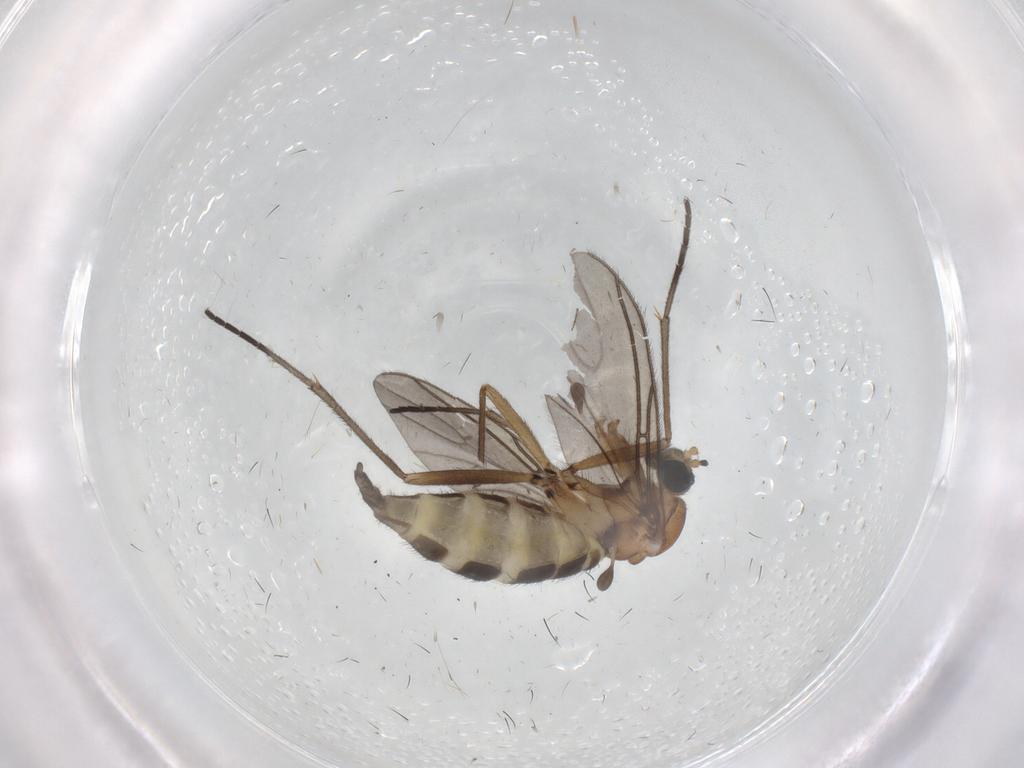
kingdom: Animalia
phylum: Arthropoda
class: Insecta
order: Diptera
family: Sciaridae
